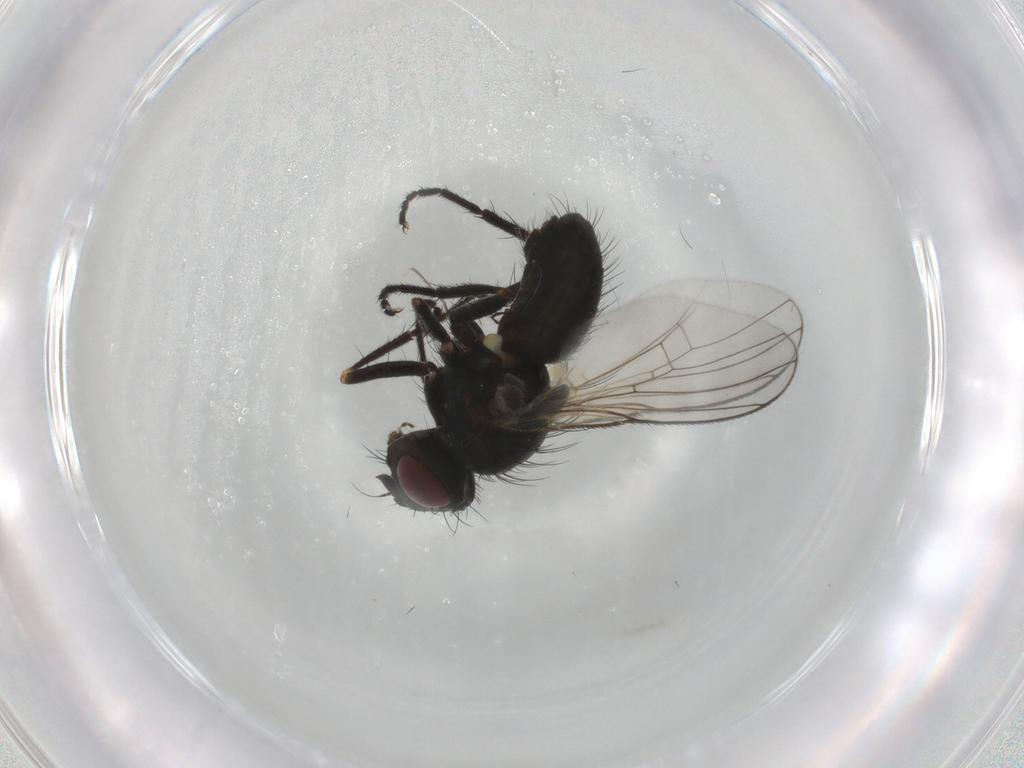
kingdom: Animalia
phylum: Arthropoda
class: Insecta
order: Diptera
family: Muscidae
